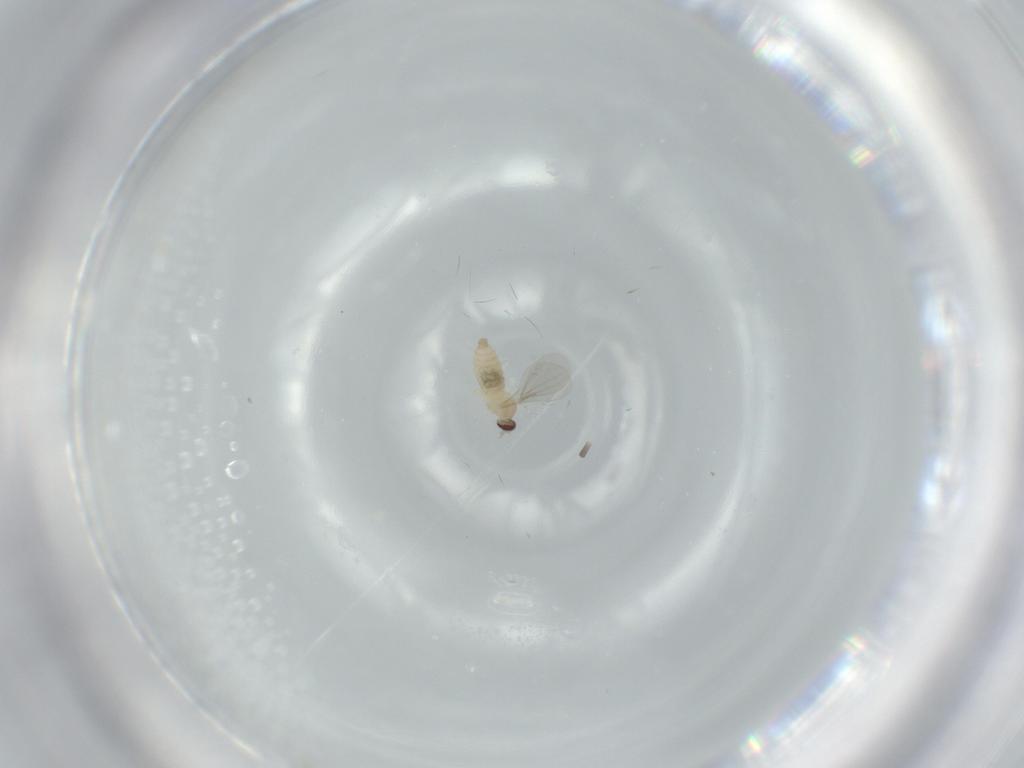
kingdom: Animalia
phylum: Arthropoda
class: Insecta
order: Diptera
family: Cecidomyiidae
